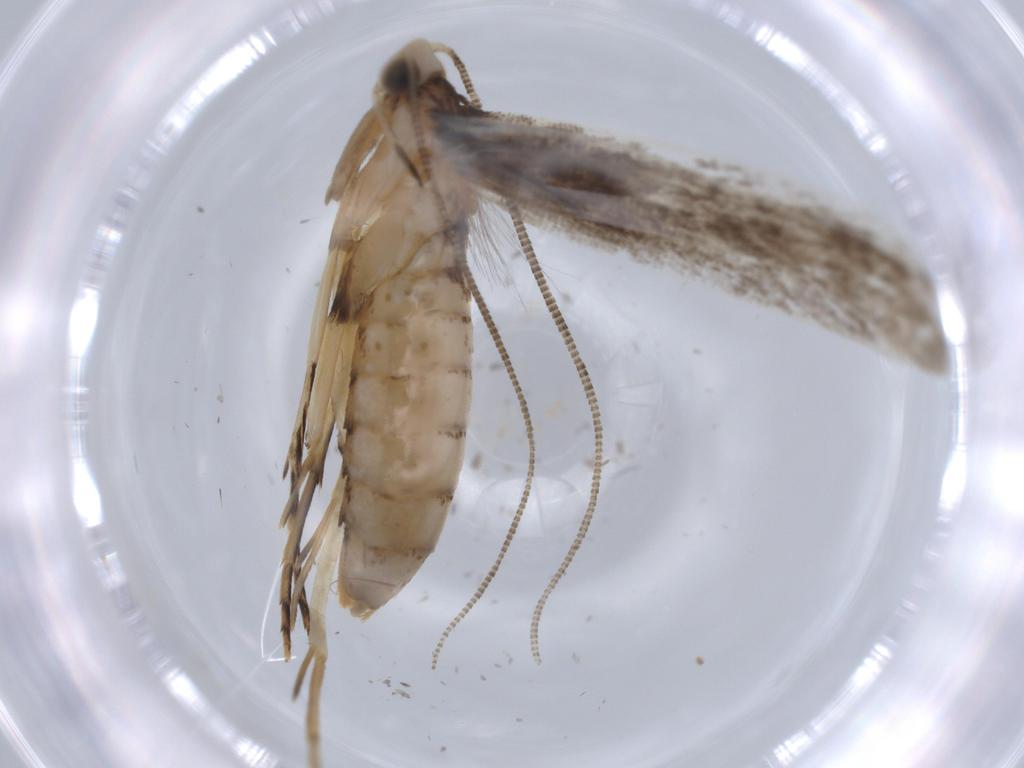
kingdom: Animalia
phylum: Arthropoda
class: Insecta
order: Lepidoptera
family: Tineidae
